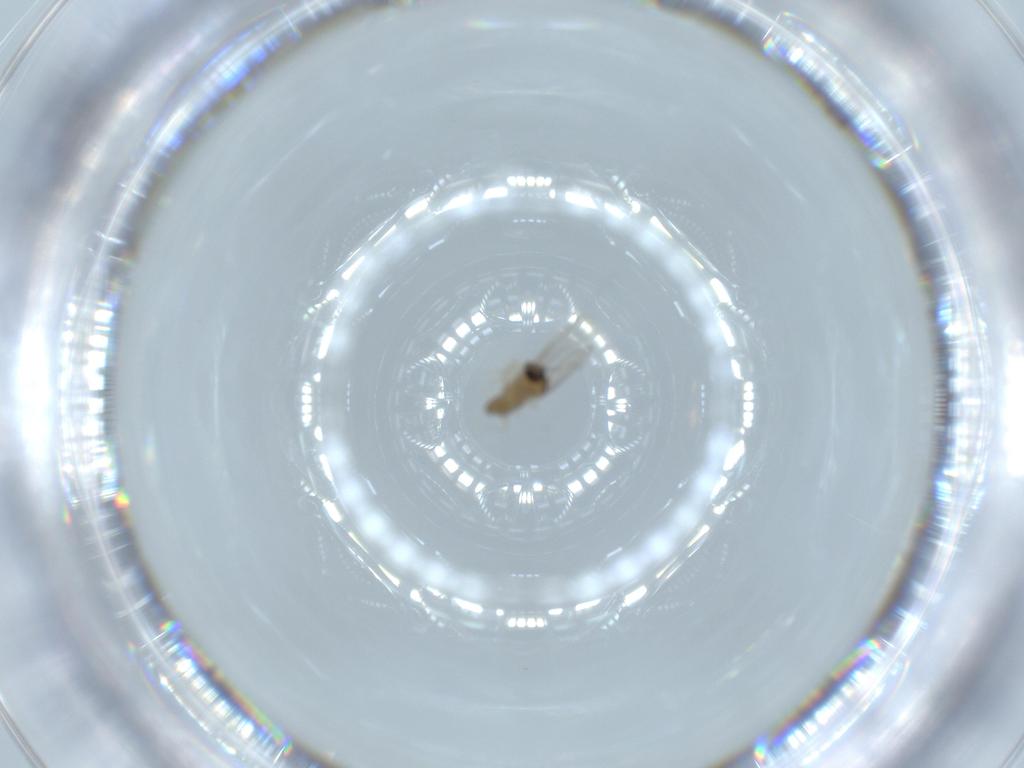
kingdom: Animalia
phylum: Arthropoda
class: Insecta
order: Diptera
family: Cecidomyiidae
